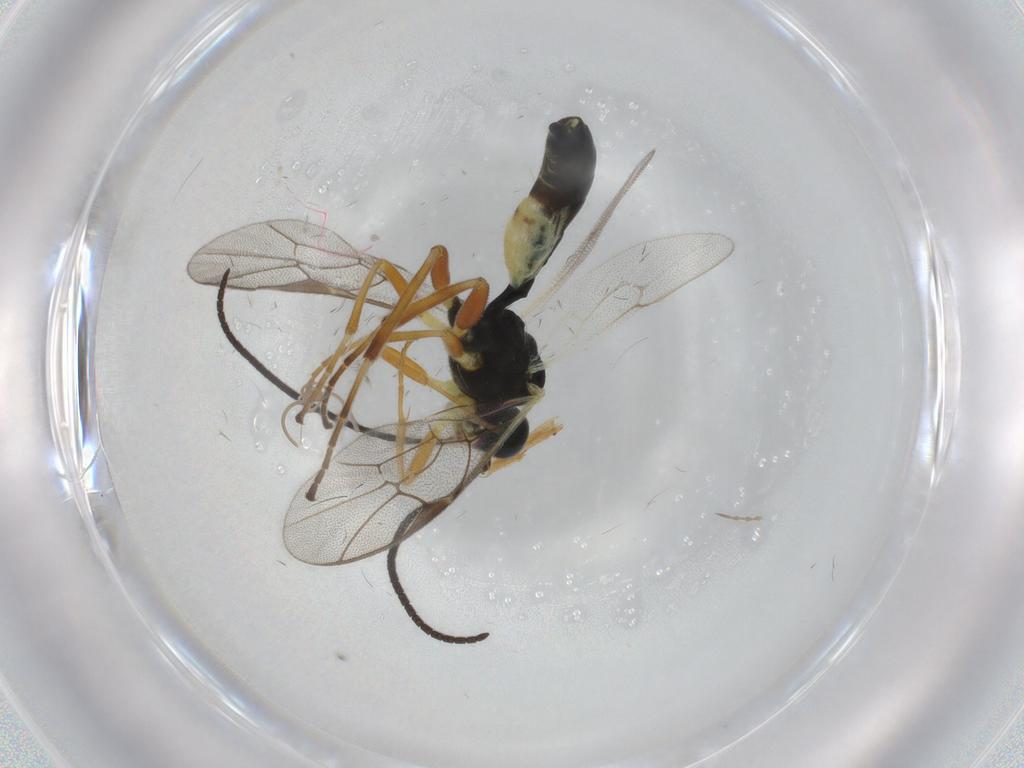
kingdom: Animalia
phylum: Arthropoda
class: Insecta
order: Hymenoptera
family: Ichneumonidae
